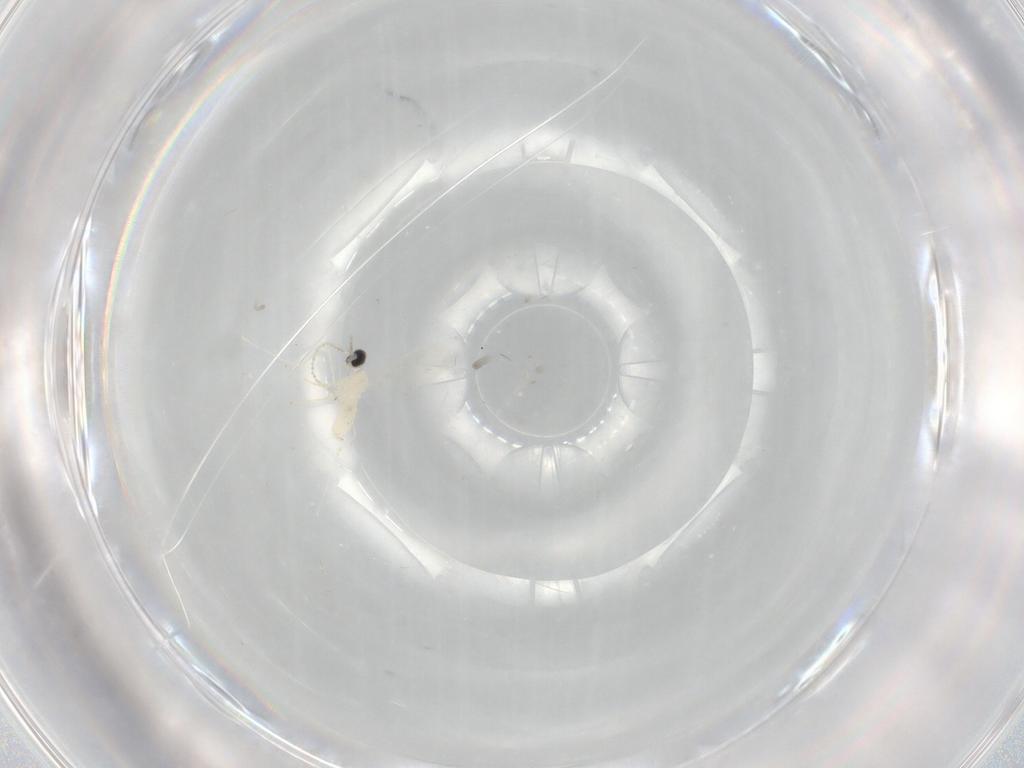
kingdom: Animalia
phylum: Arthropoda
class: Insecta
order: Diptera
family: Cecidomyiidae
